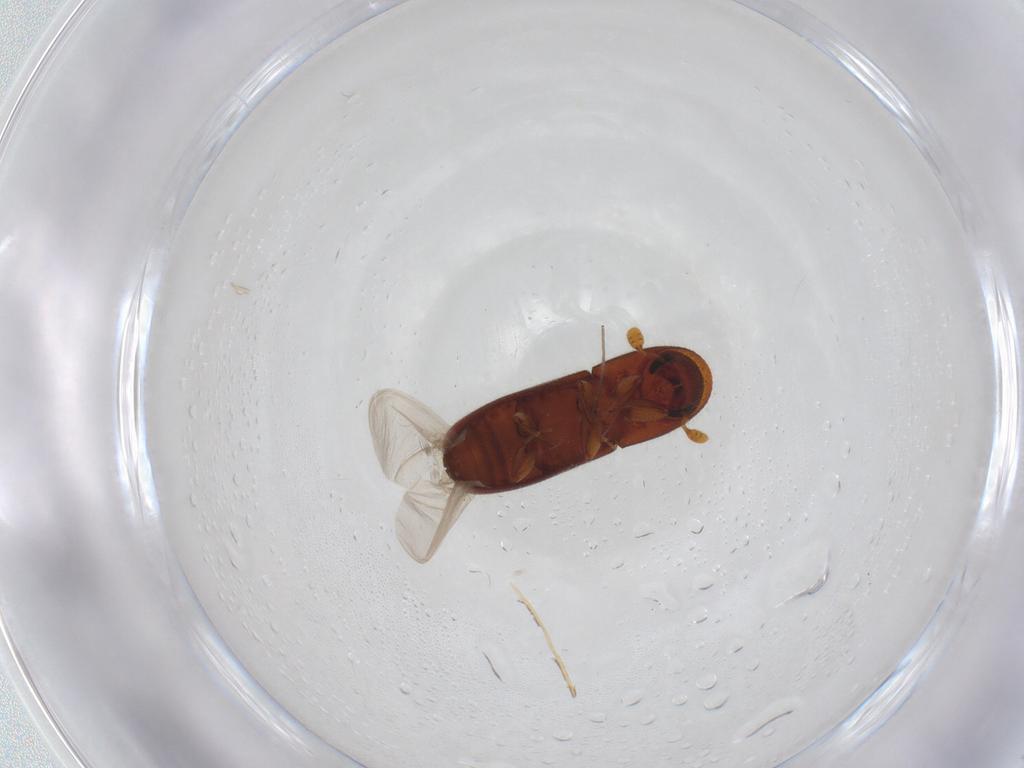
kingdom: Animalia
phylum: Arthropoda
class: Insecta
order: Coleoptera
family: Curculionidae
